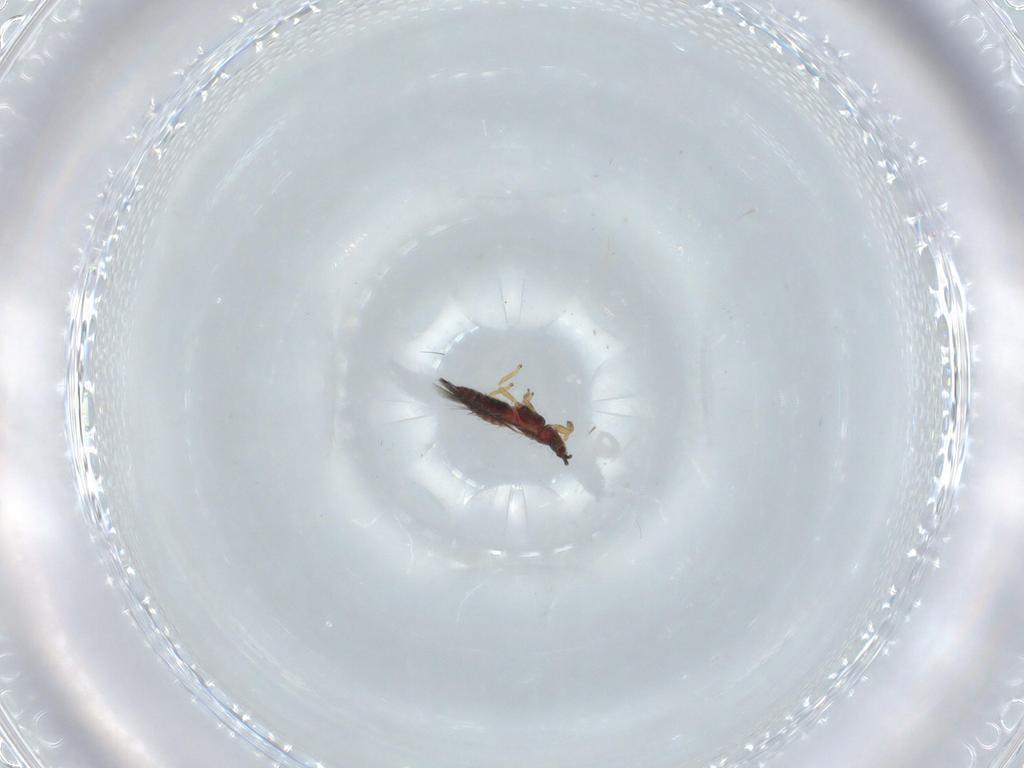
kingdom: Animalia
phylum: Arthropoda
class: Insecta
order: Thysanoptera
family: Phlaeothripidae
